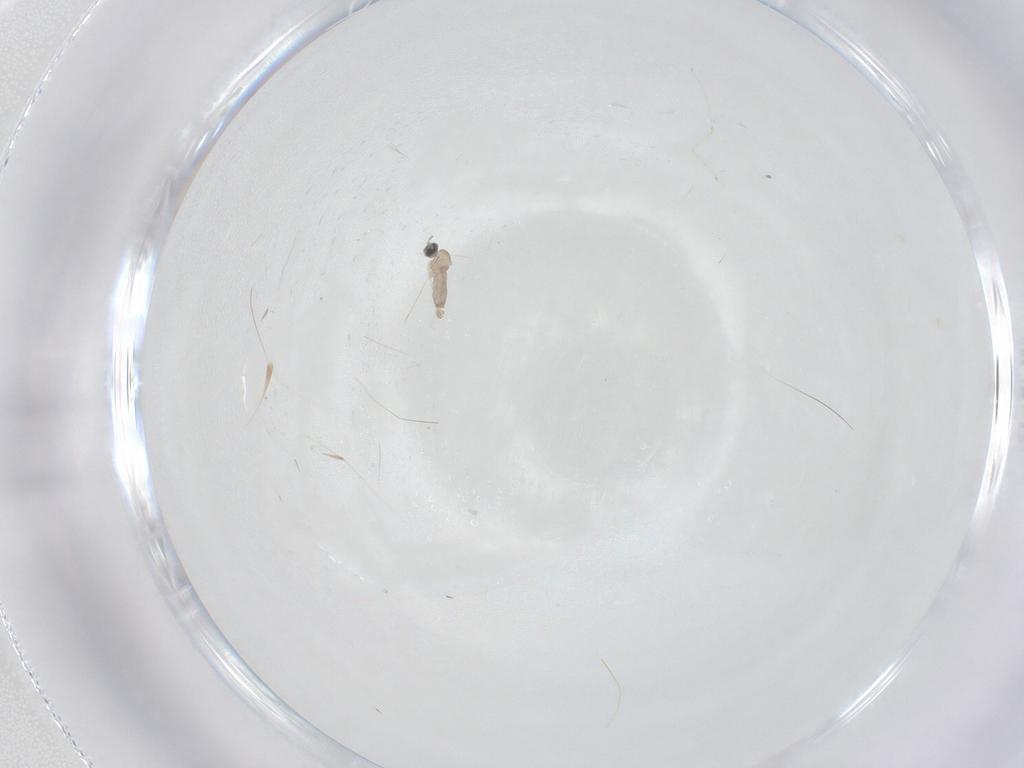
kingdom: Animalia
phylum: Arthropoda
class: Insecta
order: Diptera
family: Cecidomyiidae
